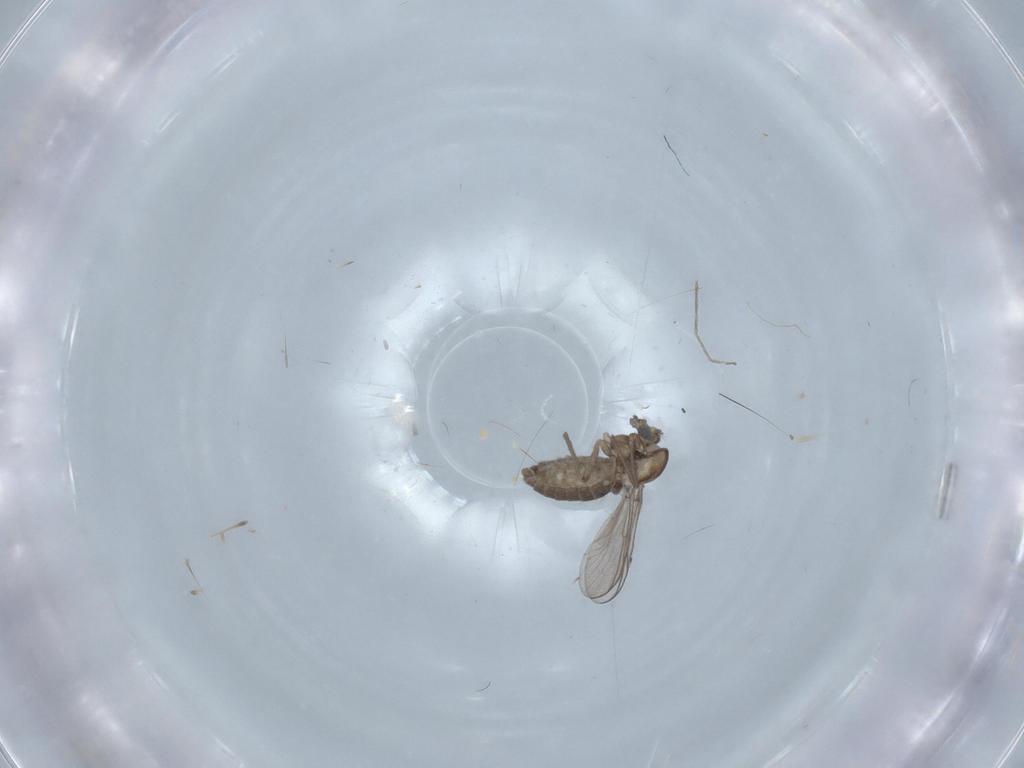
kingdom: Animalia
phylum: Arthropoda
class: Insecta
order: Diptera
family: Chironomidae
